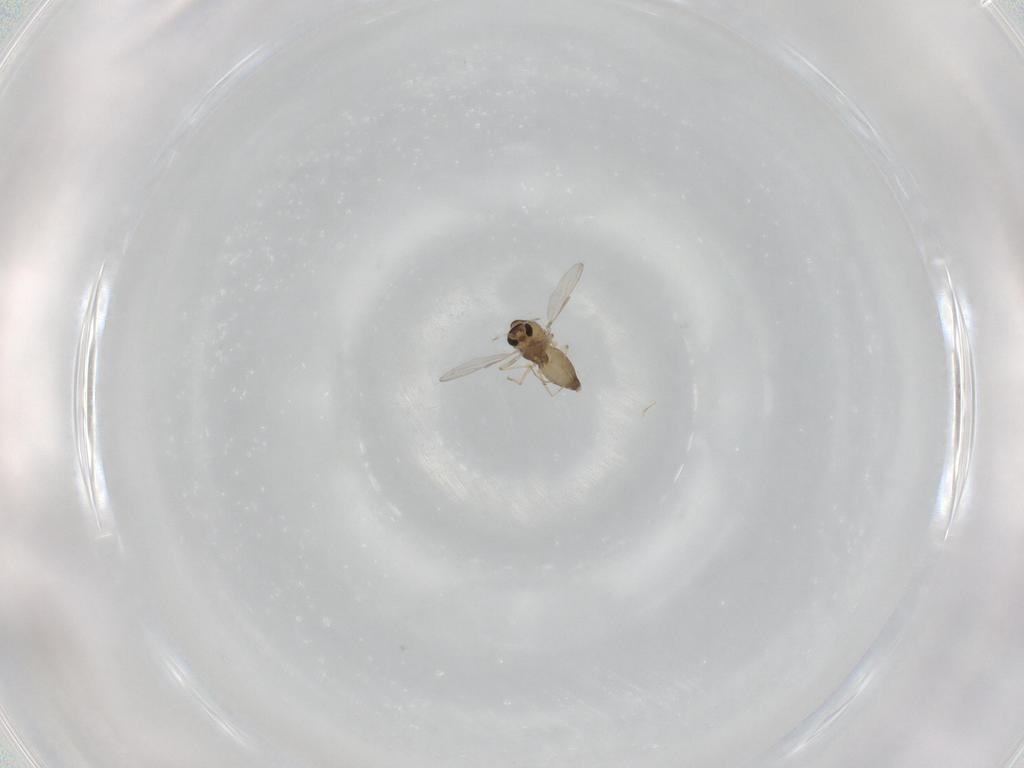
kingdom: Animalia
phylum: Arthropoda
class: Insecta
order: Diptera
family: Chironomidae
